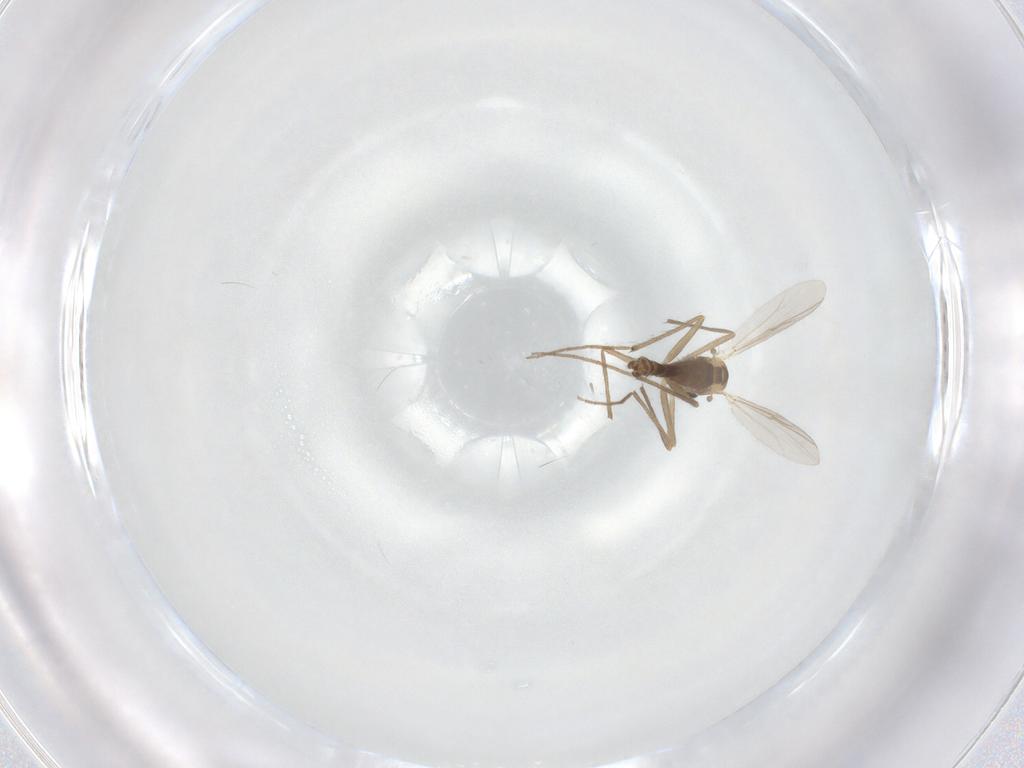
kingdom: Animalia
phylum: Arthropoda
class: Insecta
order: Diptera
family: Chironomidae
